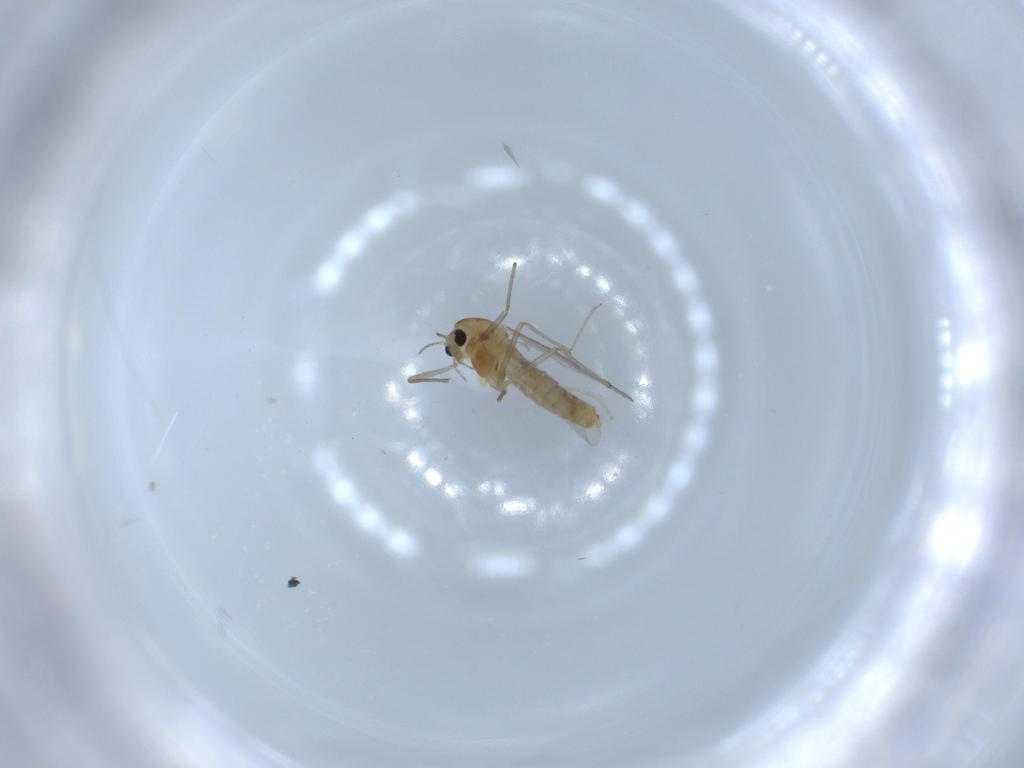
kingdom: Animalia
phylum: Arthropoda
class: Insecta
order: Diptera
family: Chironomidae
